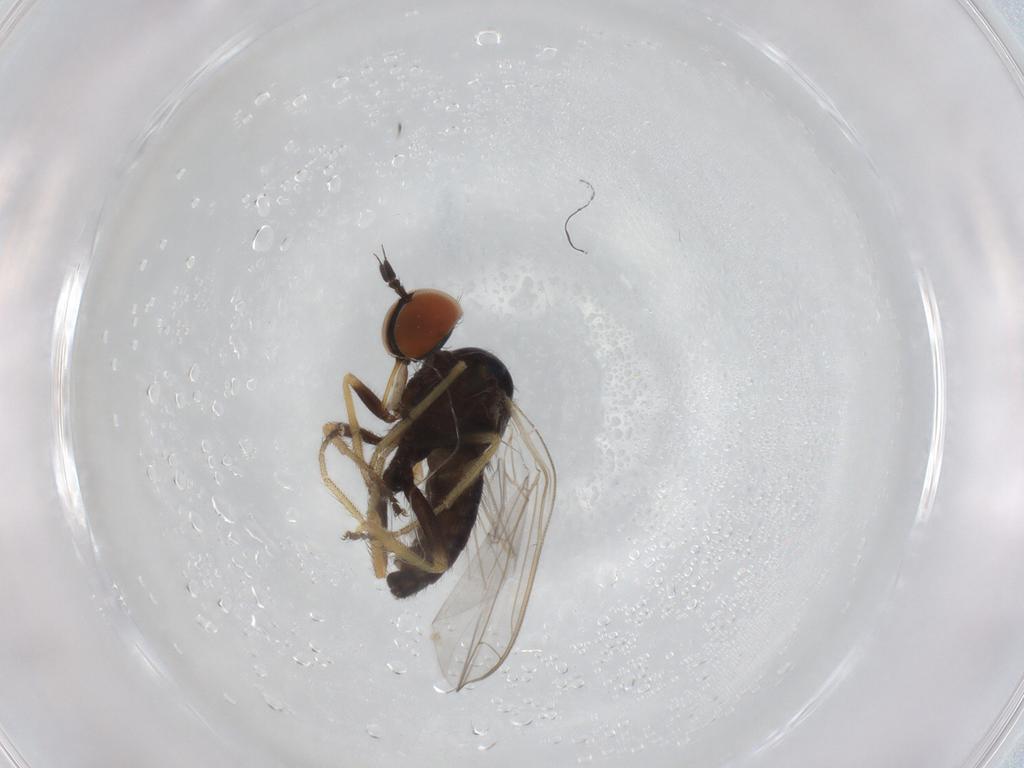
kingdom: Animalia
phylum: Arthropoda
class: Insecta
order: Diptera
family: Empididae
